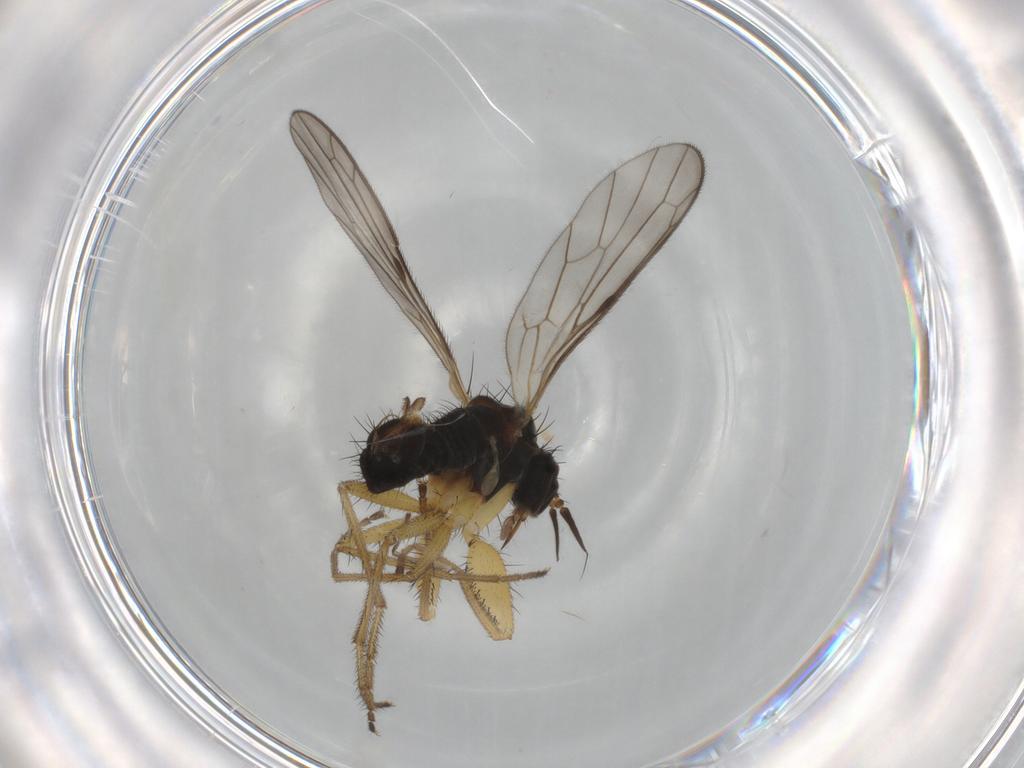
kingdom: Animalia
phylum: Arthropoda
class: Insecta
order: Diptera
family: Empididae
